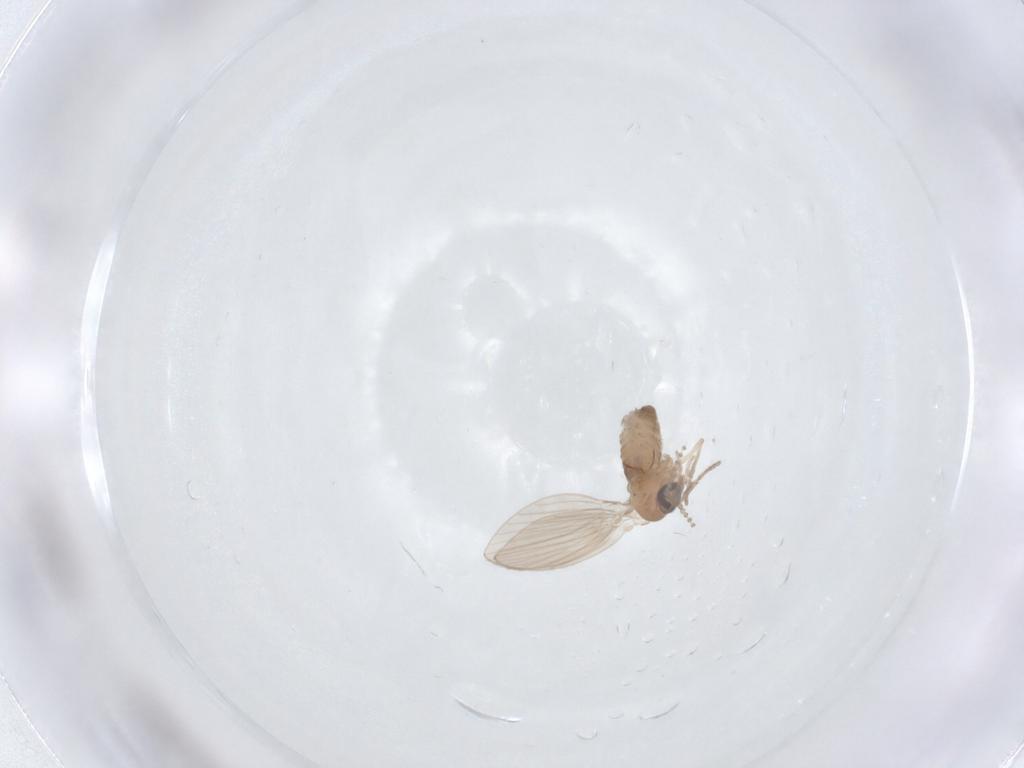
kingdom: Animalia
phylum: Arthropoda
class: Insecta
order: Diptera
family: Psychodidae
